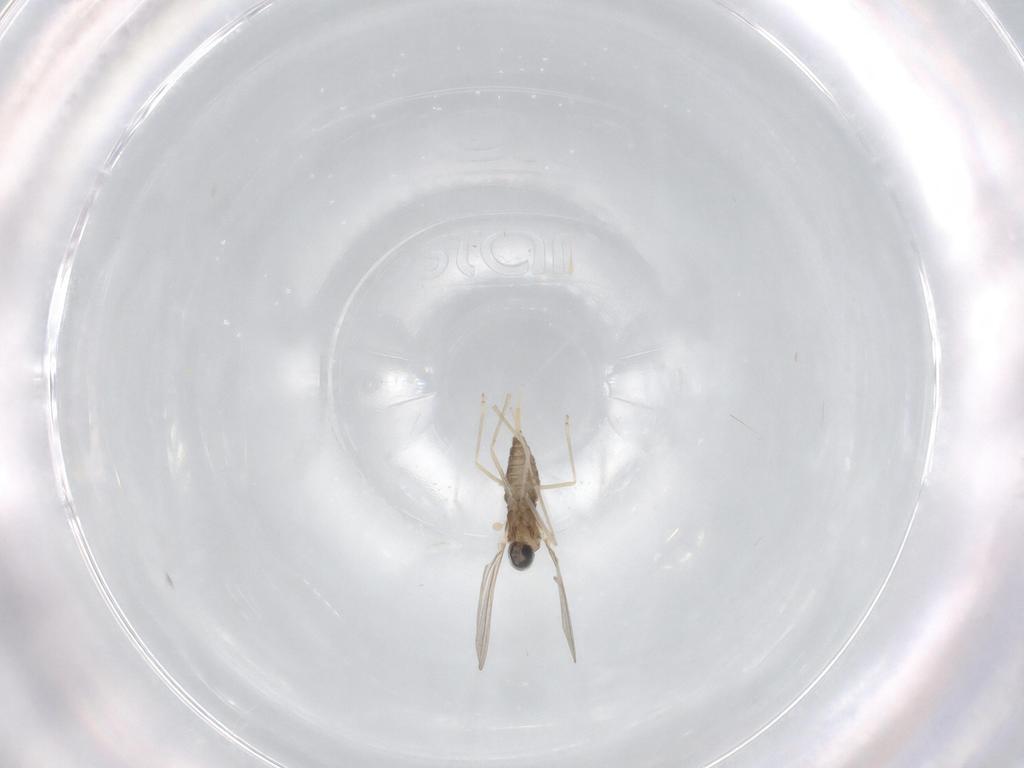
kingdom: Animalia
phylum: Arthropoda
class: Insecta
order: Diptera
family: Cecidomyiidae
